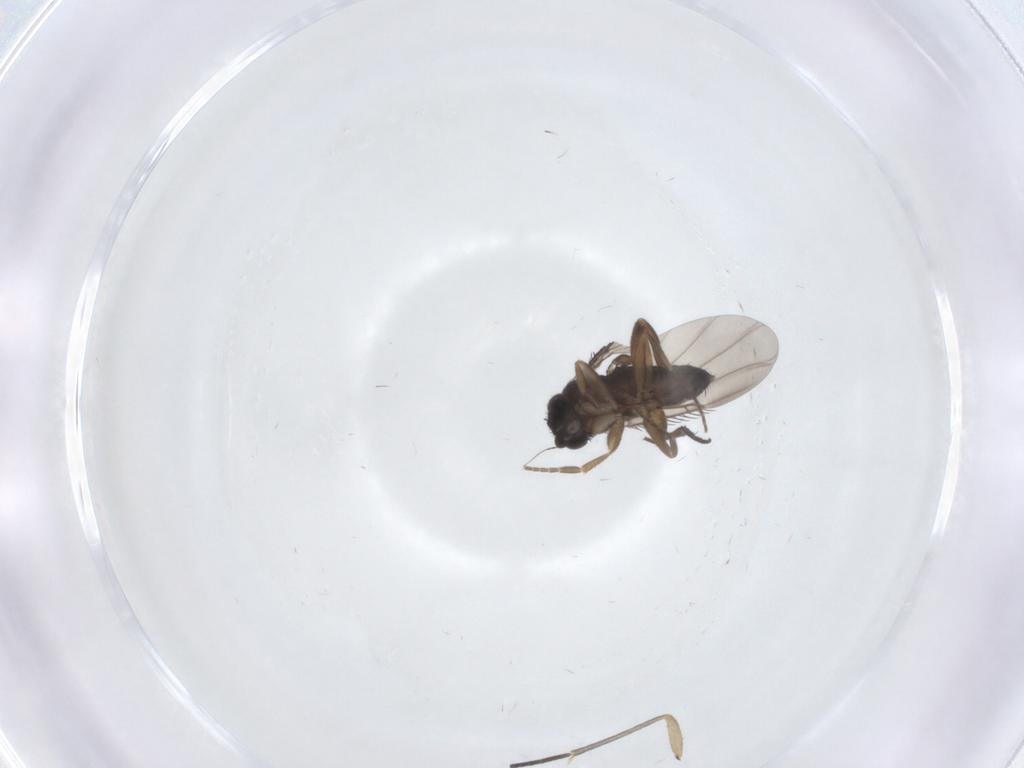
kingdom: Animalia
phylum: Arthropoda
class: Insecta
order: Diptera
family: Phoridae
